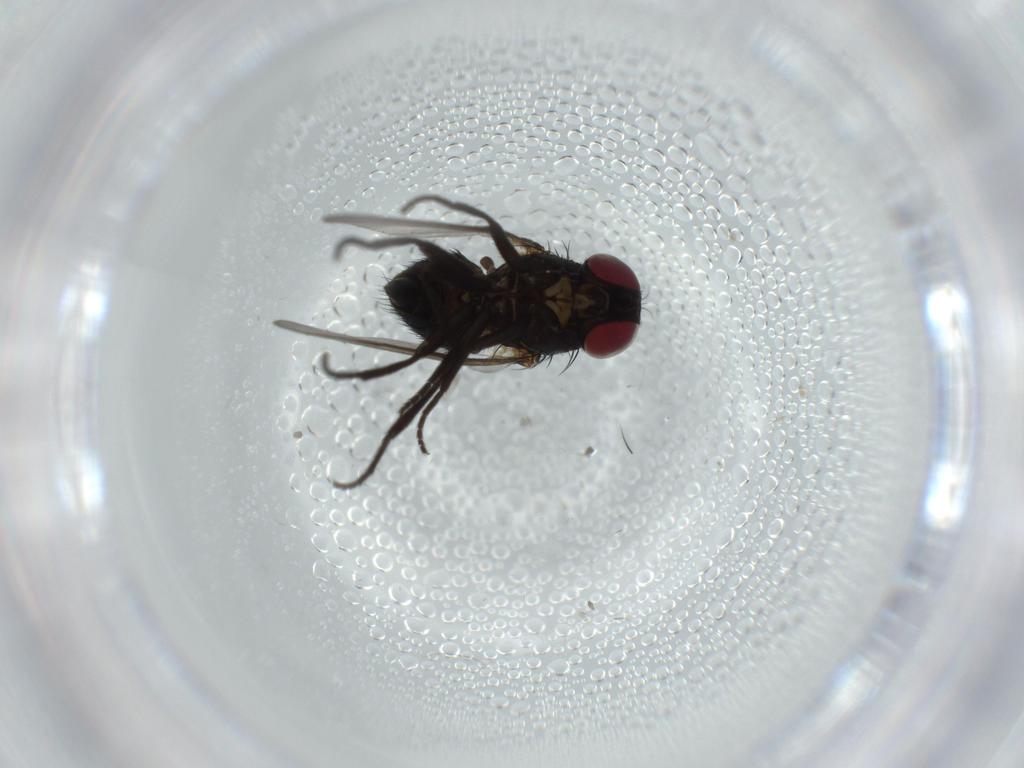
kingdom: Animalia
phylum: Arthropoda
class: Insecta
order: Diptera
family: Agromyzidae
